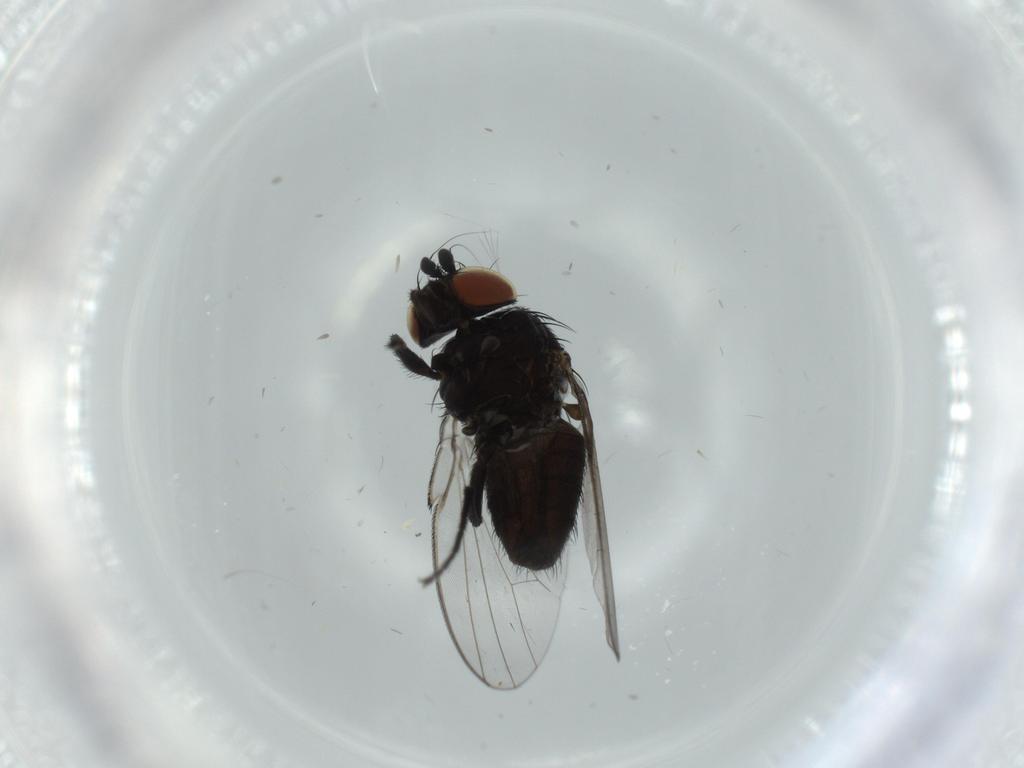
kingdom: Animalia
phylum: Arthropoda
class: Insecta
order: Diptera
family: Milichiidae
